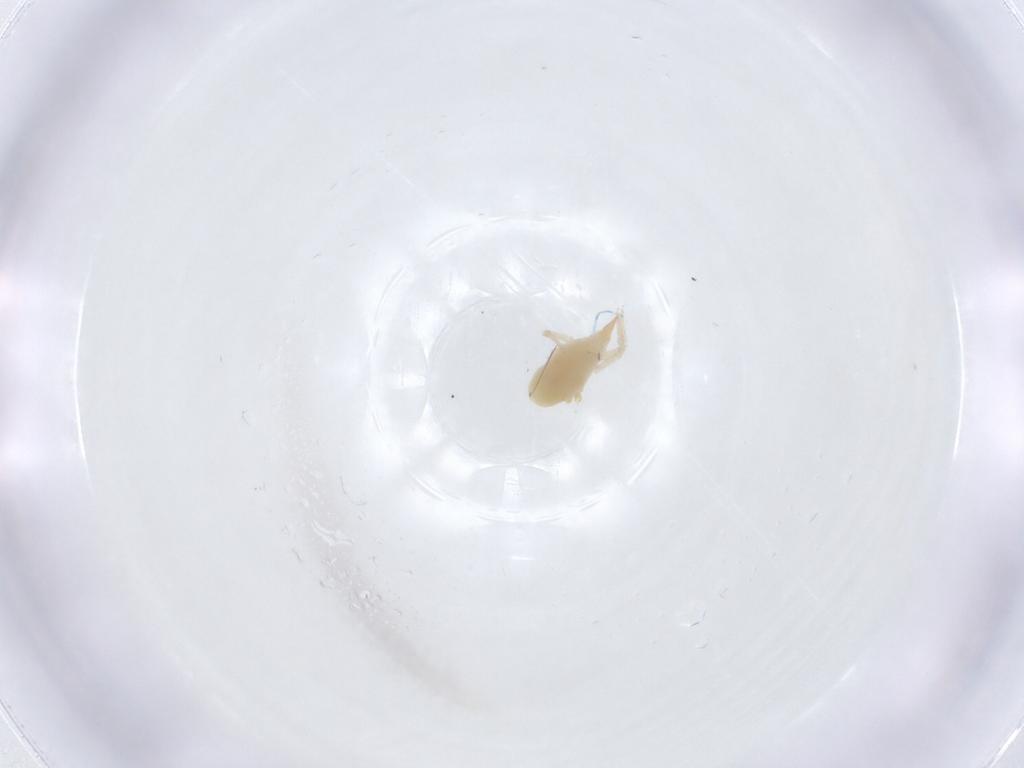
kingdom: Animalia
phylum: Arthropoda
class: Arachnida
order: Trombidiformes
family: Bdellidae
